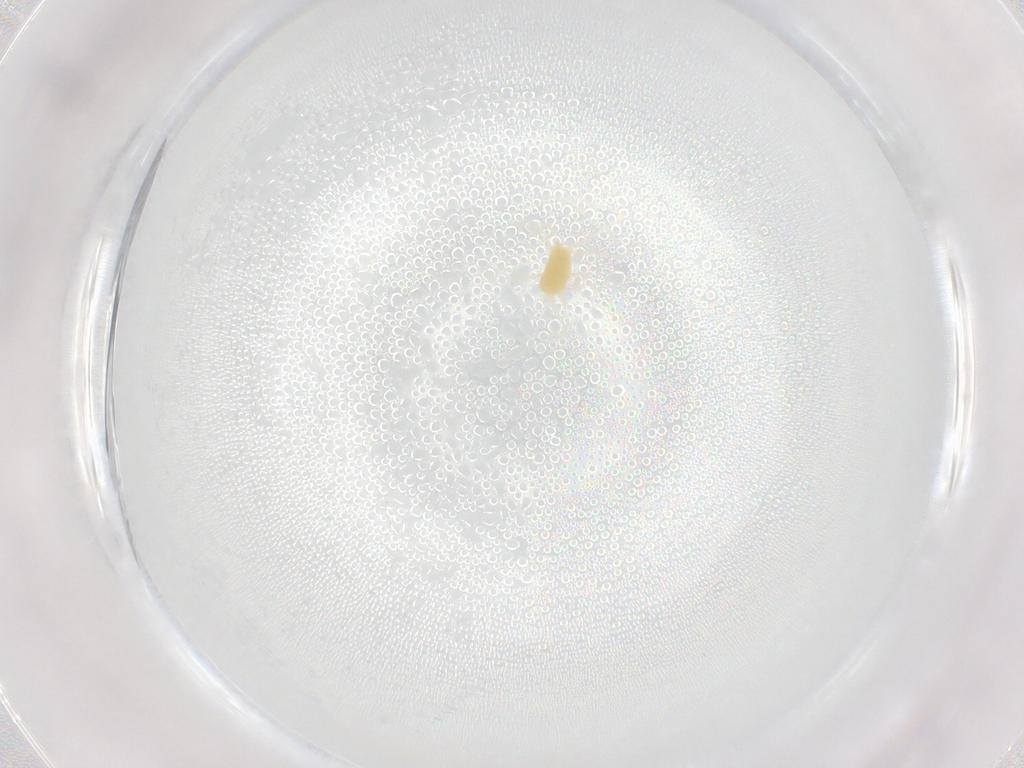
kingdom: Animalia
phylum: Arthropoda
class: Arachnida
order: Trombidiformes
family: Tetranychidae
